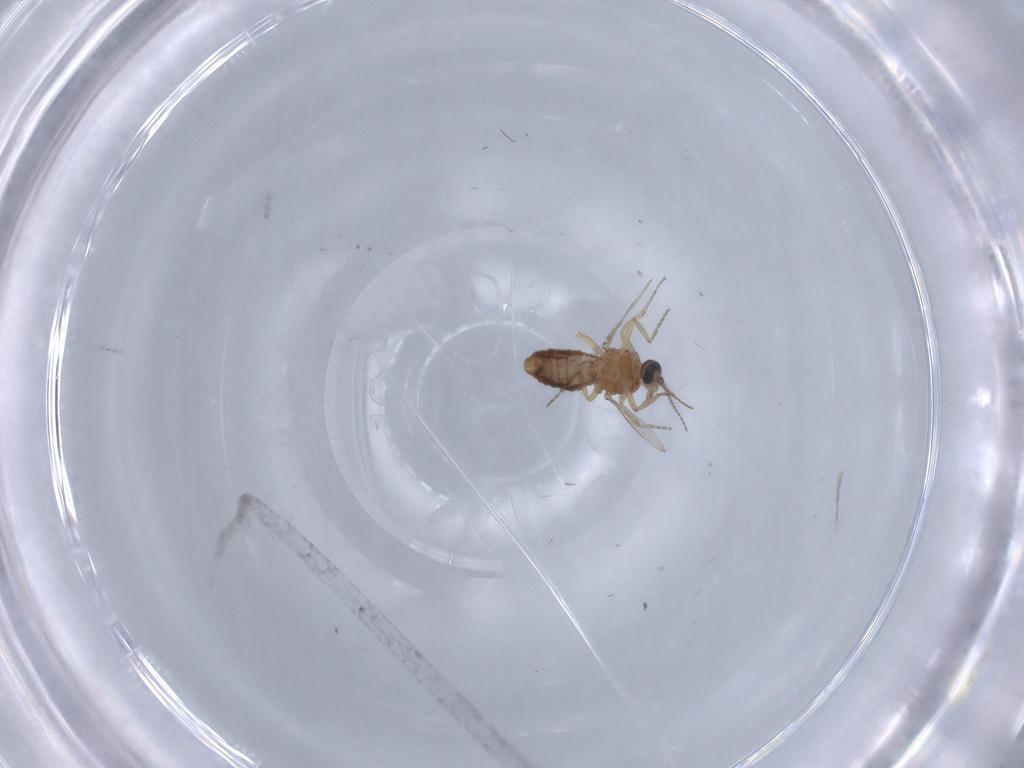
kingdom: Animalia
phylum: Arthropoda
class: Insecta
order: Diptera
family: Ceratopogonidae
